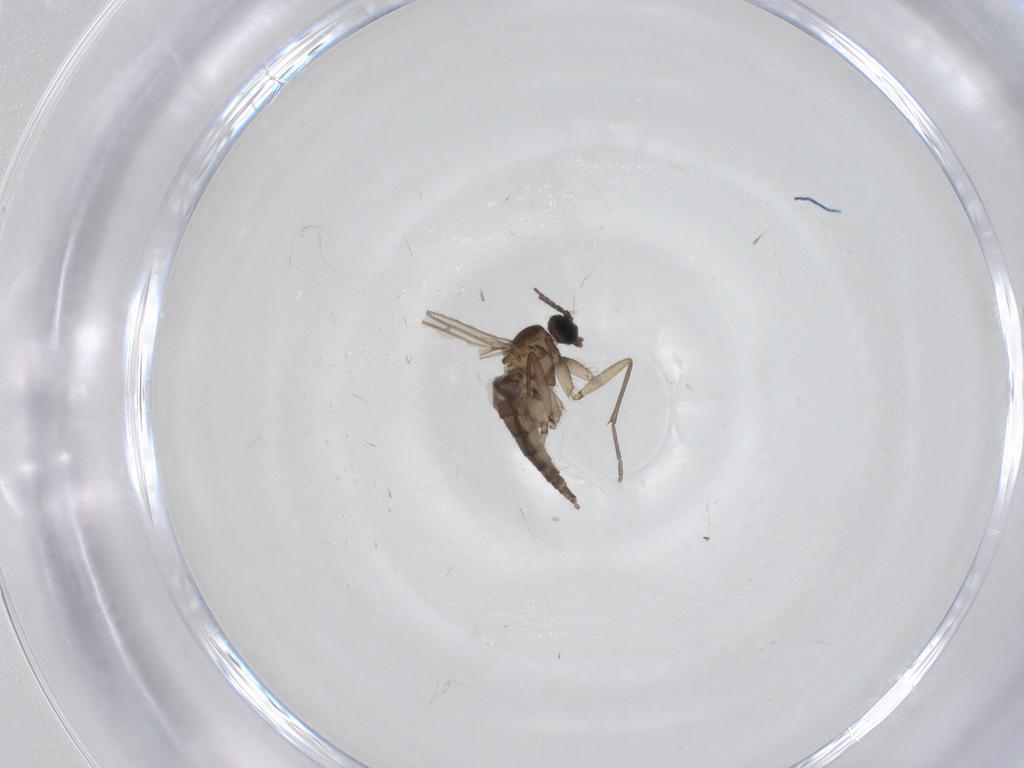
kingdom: Animalia
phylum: Arthropoda
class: Insecta
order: Diptera
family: Sciaridae
